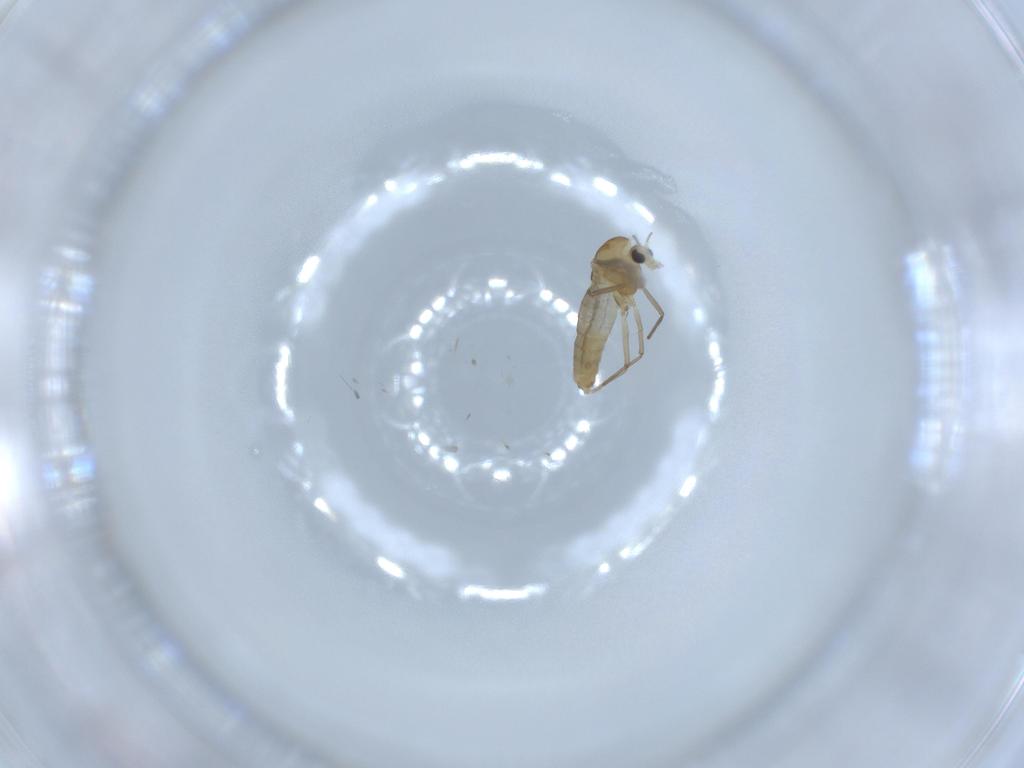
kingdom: Animalia
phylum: Arthropoda
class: Insecta
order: Diptera
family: Chironomidae
